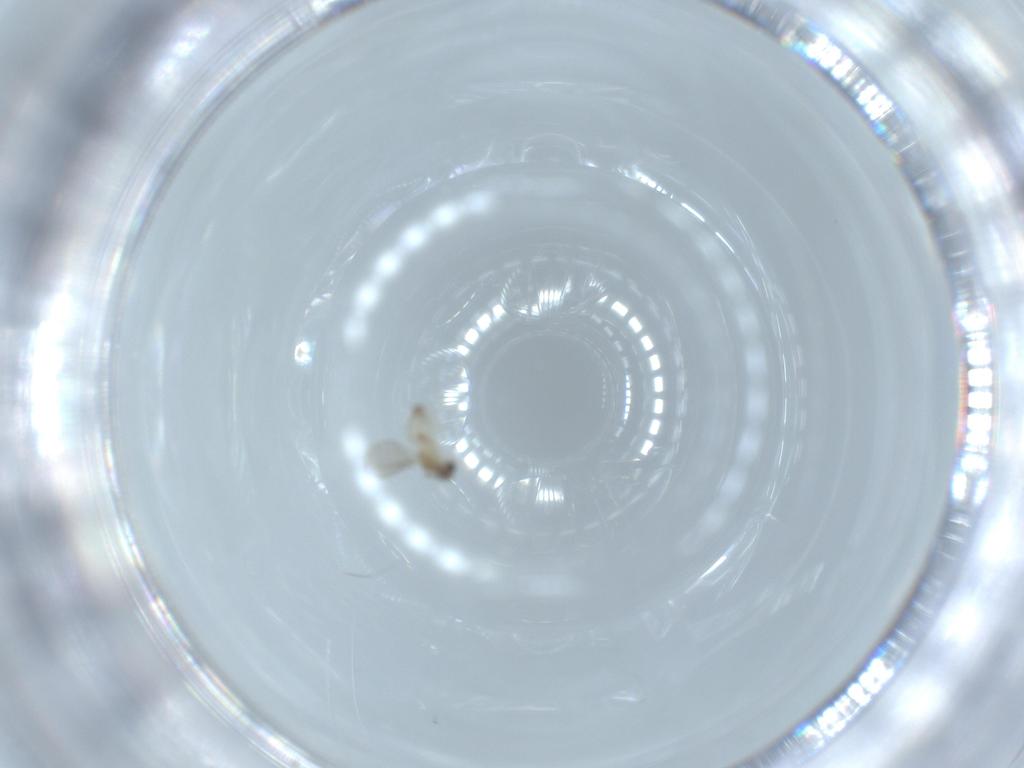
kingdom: Animalia
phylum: Arthropoda
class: Insecta
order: Diptera
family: Cecidomyiidae
